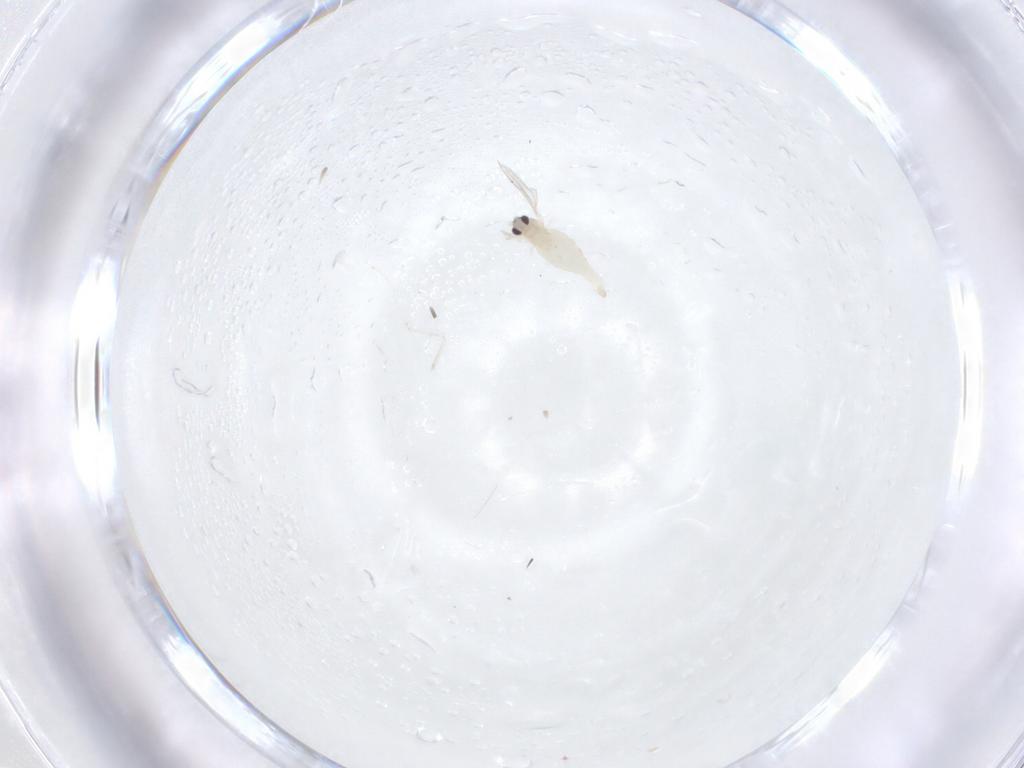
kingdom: Animalia
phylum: Arthropoda
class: Insecta
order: Diptera
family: Cecidomyiidae
